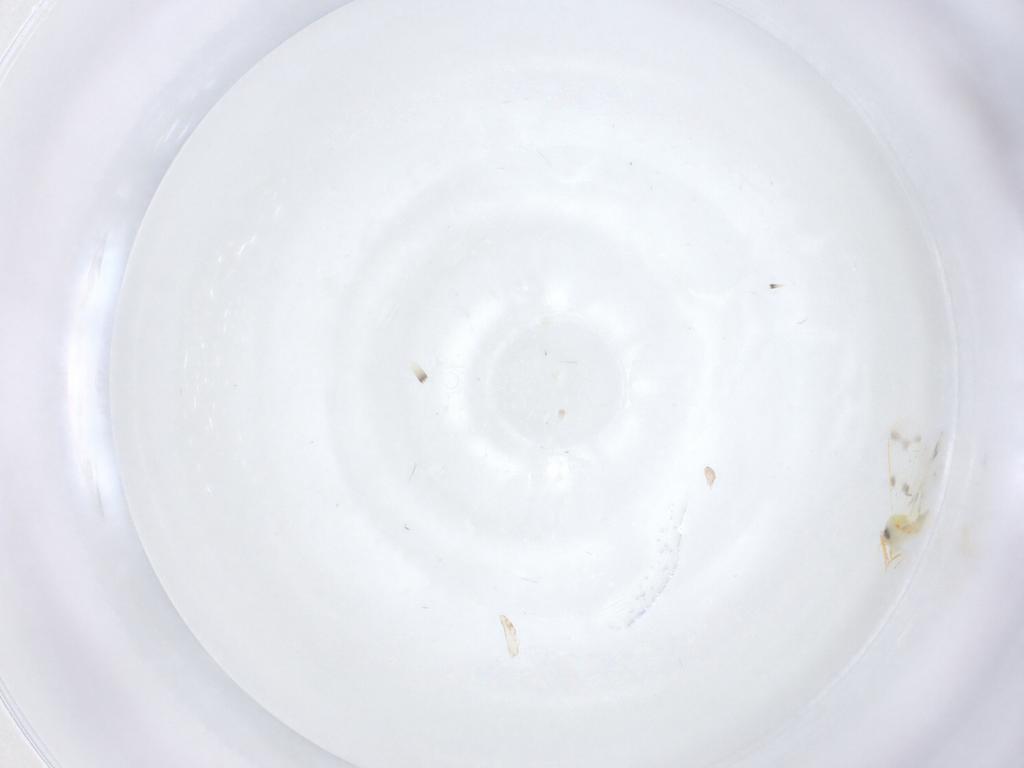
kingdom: Animalia
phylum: Arthropoda
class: Insecta
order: Hemiptera
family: Aleyrodidae
